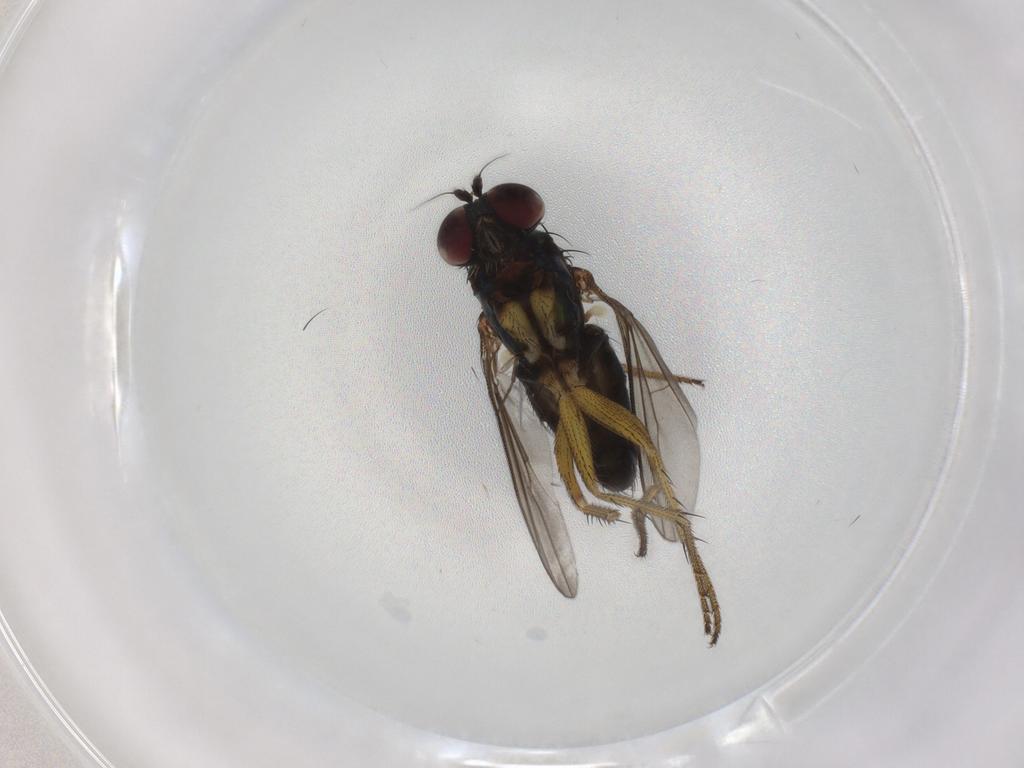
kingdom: Animalia
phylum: Arthropoda
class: Insecta
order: Diptera
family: Dolichopodidae
